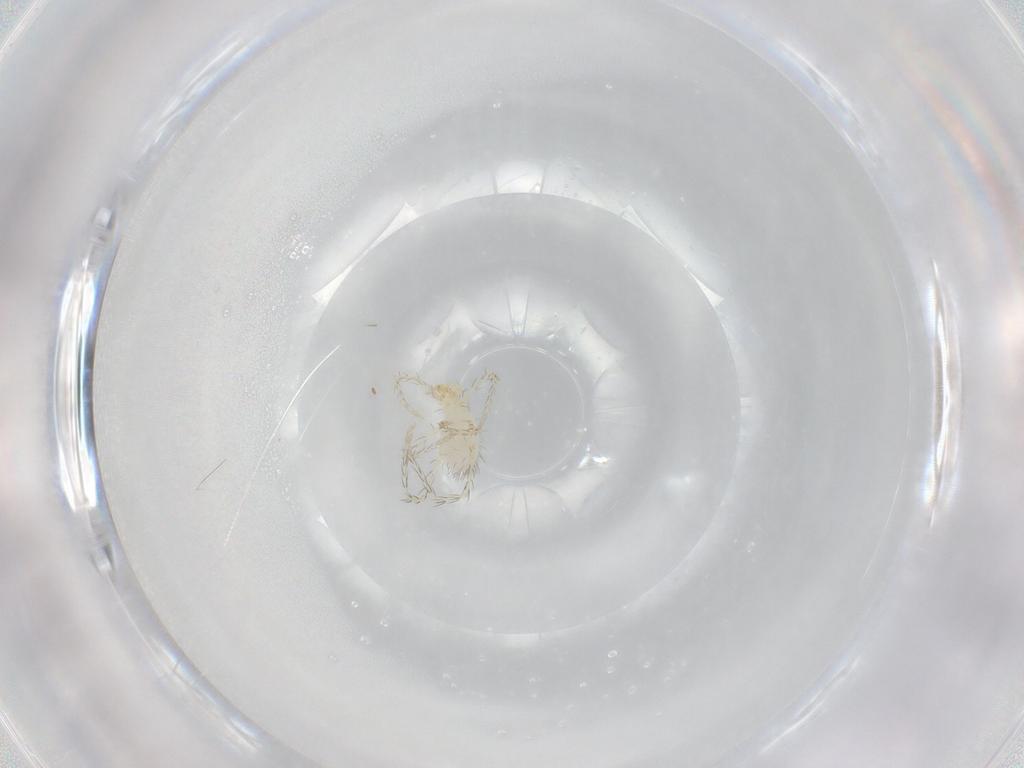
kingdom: Animalia
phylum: Arthropoda
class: Arachnida
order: Trombidiformes
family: Erythraeidae
